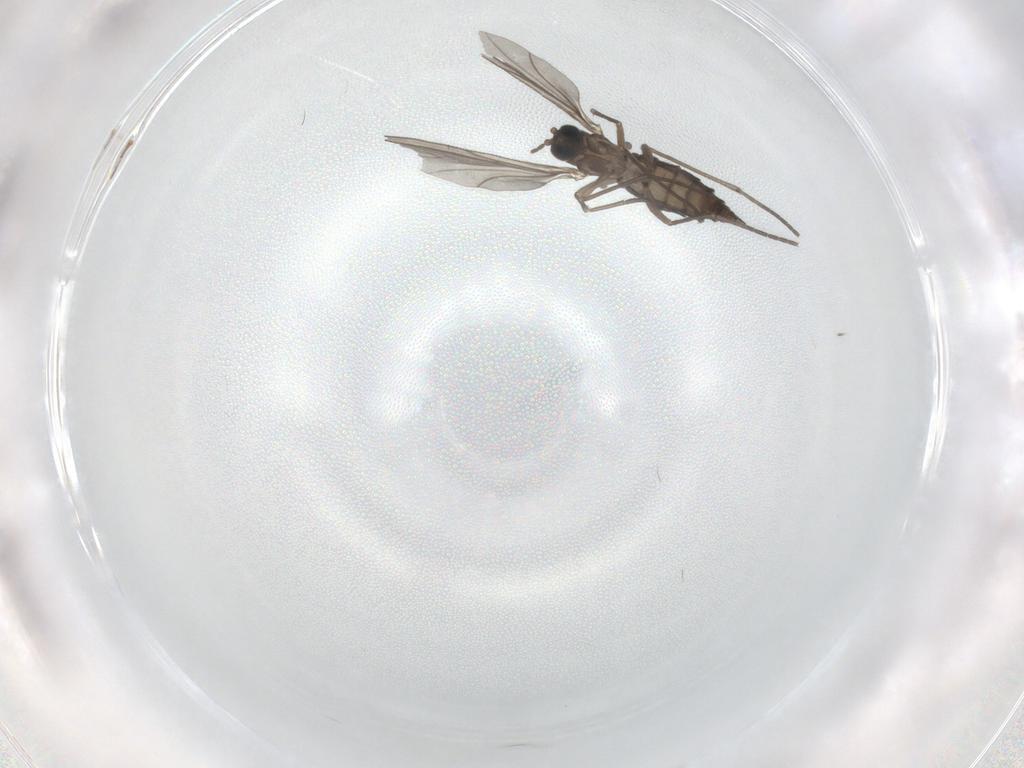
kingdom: Animalia
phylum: Arthropoda
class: Insecta
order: Diptera
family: Sciaridae
